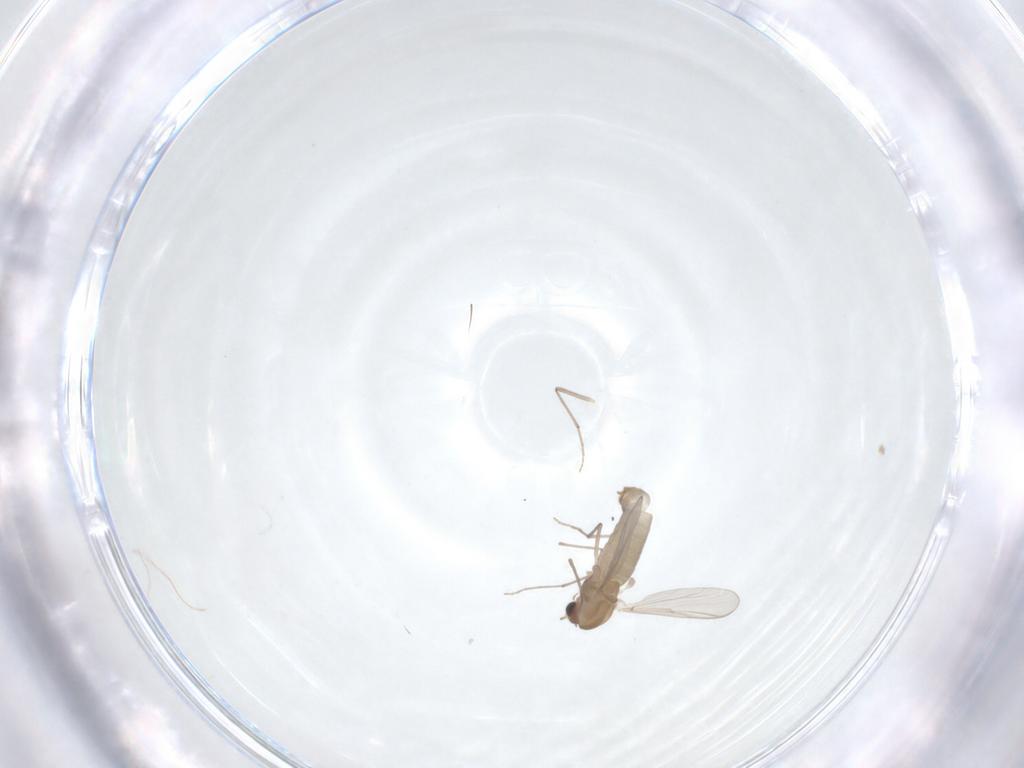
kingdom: Animalia
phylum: Arthropoda
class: Insecta
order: Diptera
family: Chironomidae
